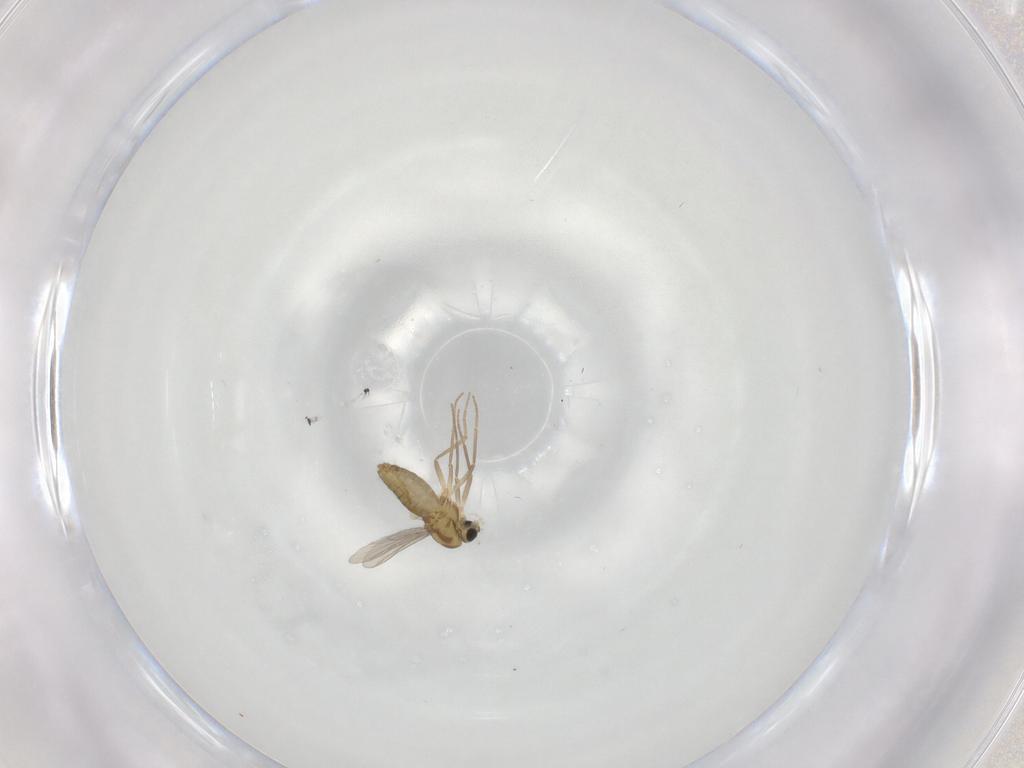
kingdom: Animalia
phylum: Arthropoda
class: Insecta
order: Diptera
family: Chironomidae
